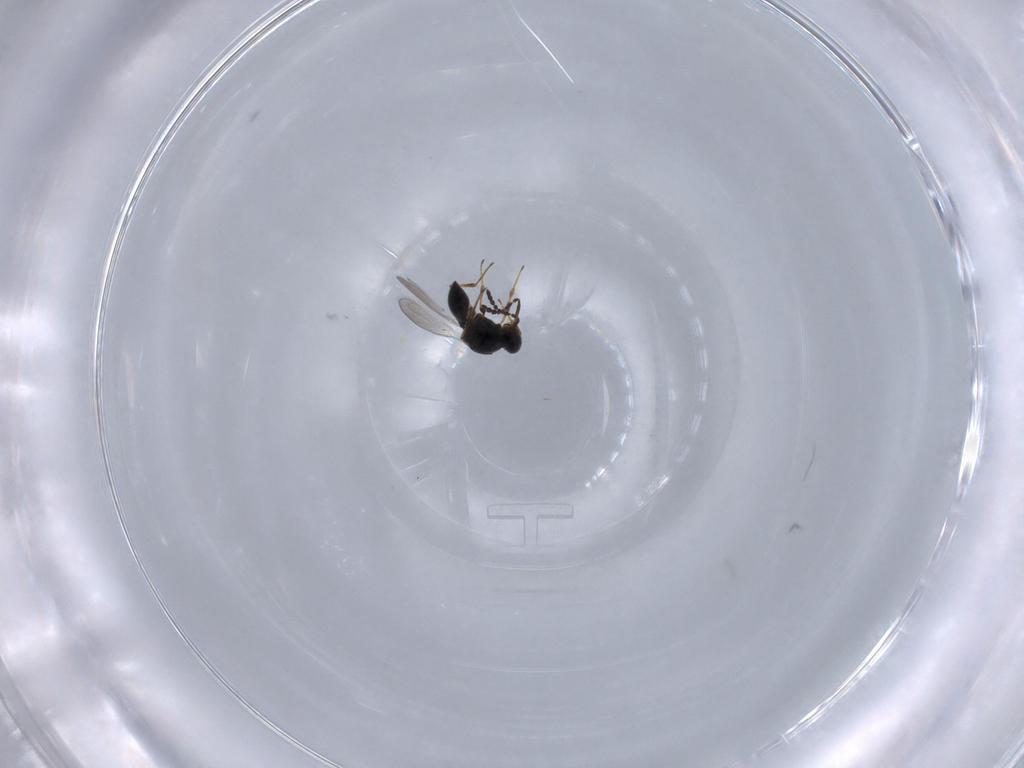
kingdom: Animalia
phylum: Arthropoda
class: Insecta
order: Hymenoptera
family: Platygastridae
